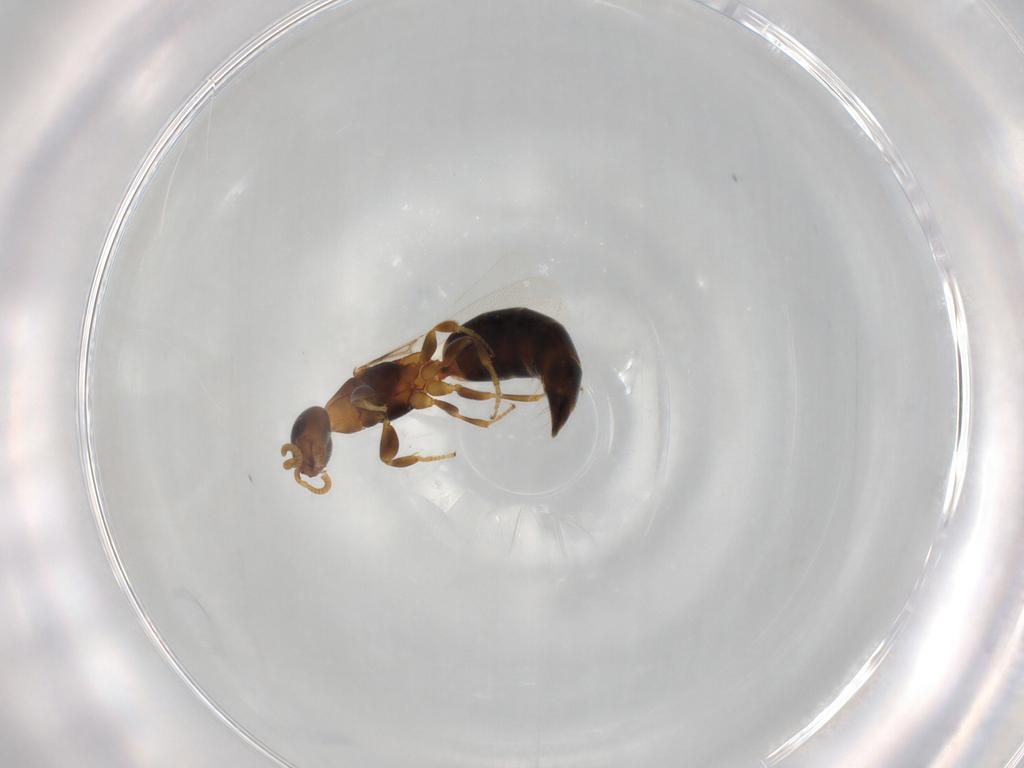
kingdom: Animalia
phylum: Arthropoda
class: Insecta
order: Hymenoptera
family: Bethylidae
